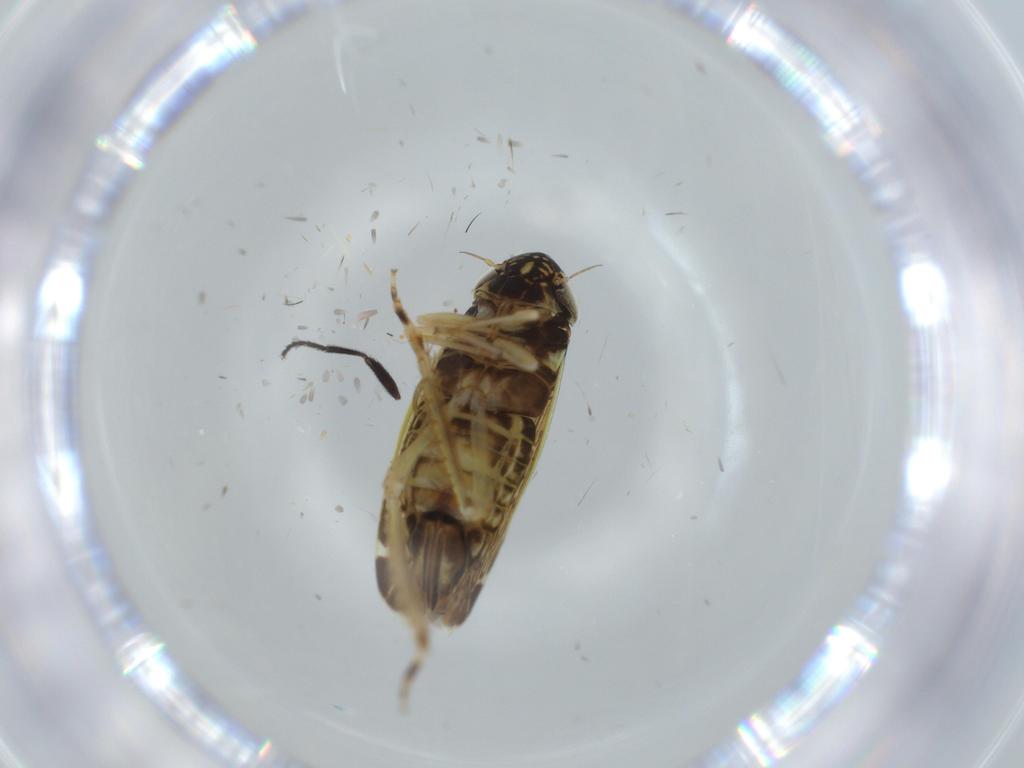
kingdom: Animalia
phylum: Arthropoda
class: Insecta
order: Hemiptera
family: Cicadellidae
